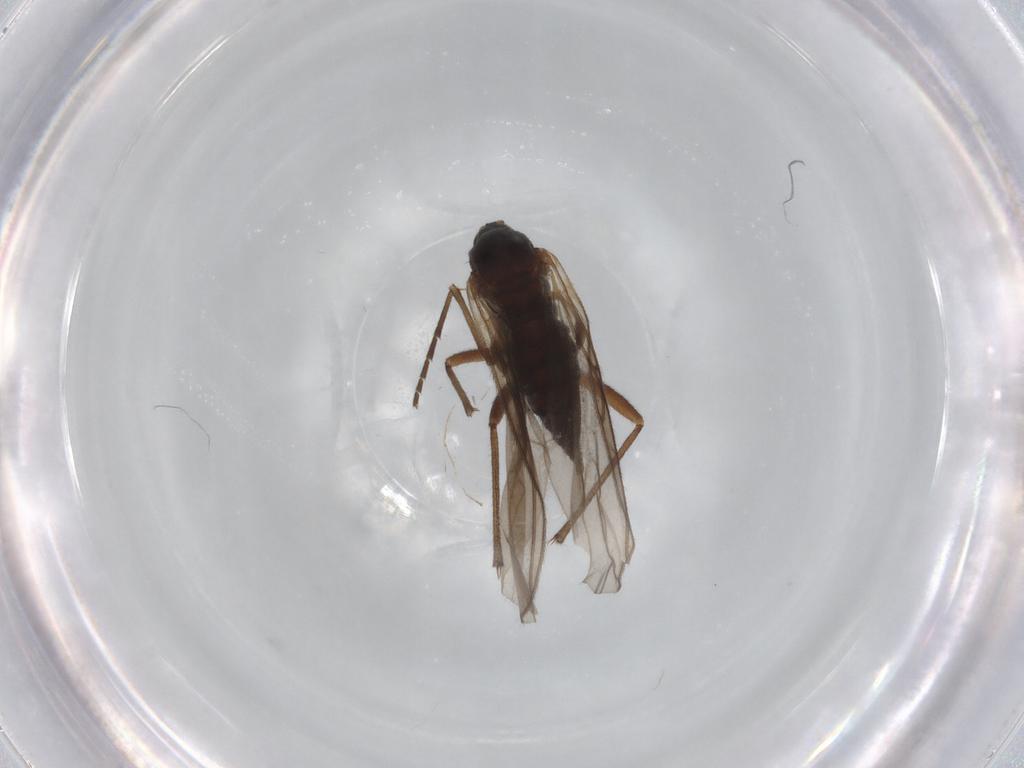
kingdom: Animalia
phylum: Arthropoda
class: Insecta
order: Diptera
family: Sciaridae
